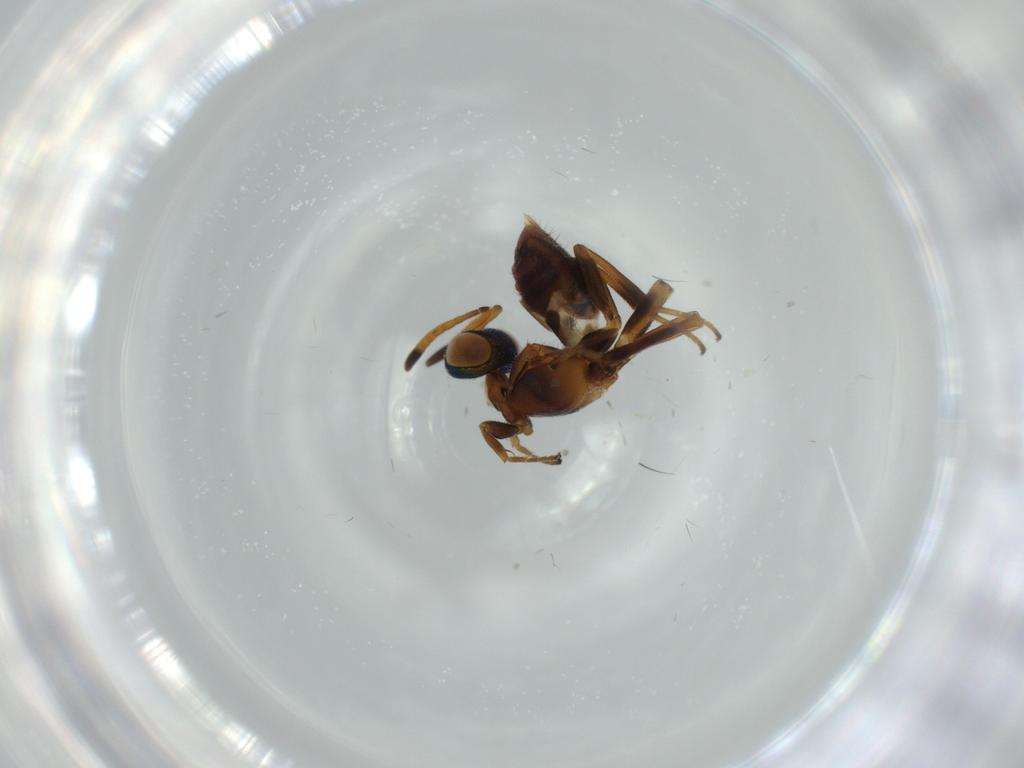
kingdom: Animalia
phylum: Arthropoda
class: Insecta
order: Hymenoptera
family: Eupelmidae
